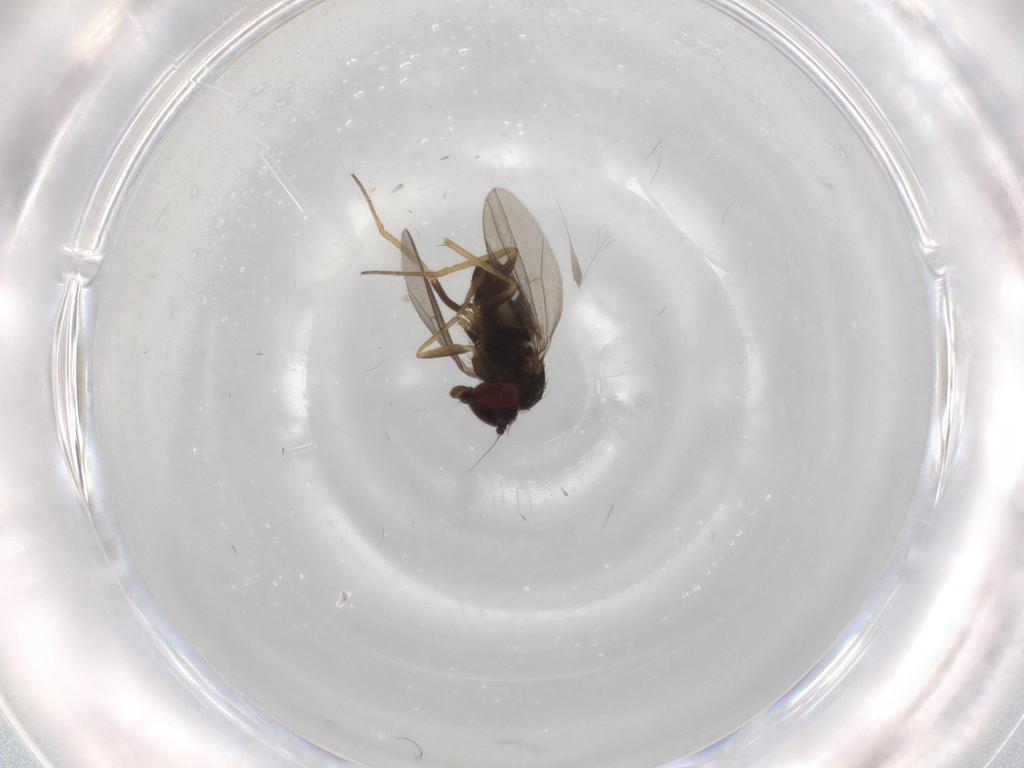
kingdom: Animalia
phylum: Arthropoda
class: Insecta
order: Diptera
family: Dolichopodidae
